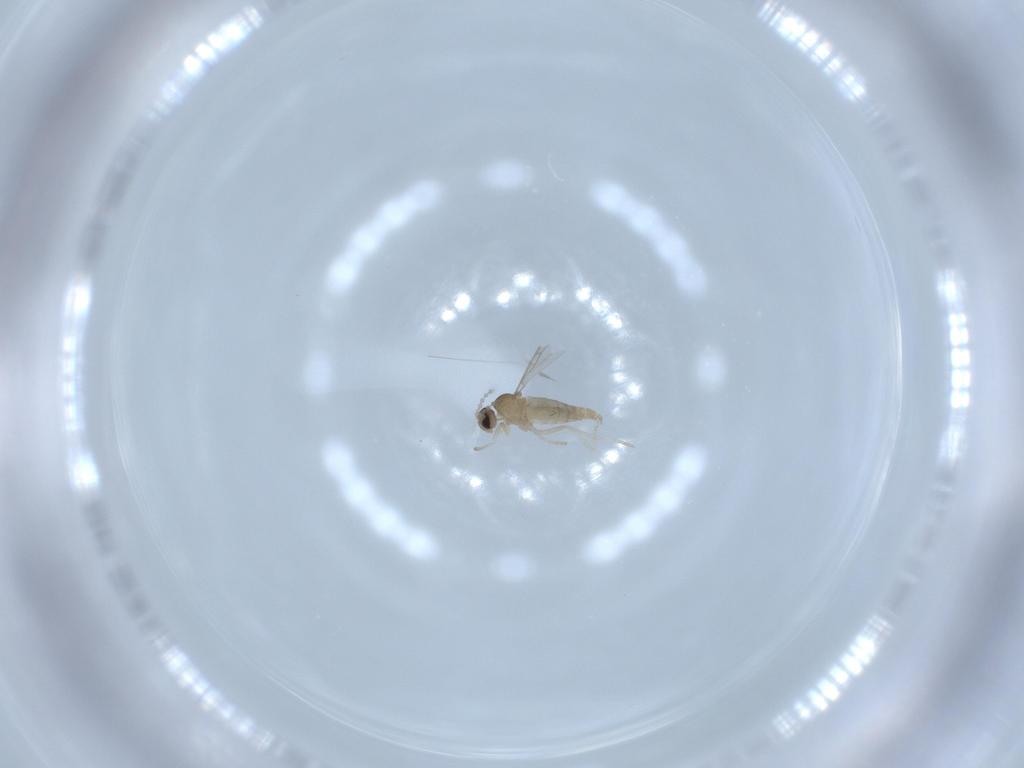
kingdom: Animalia
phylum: Arthropoda
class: Insecta
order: Diptera
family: Cecidomyiidae
